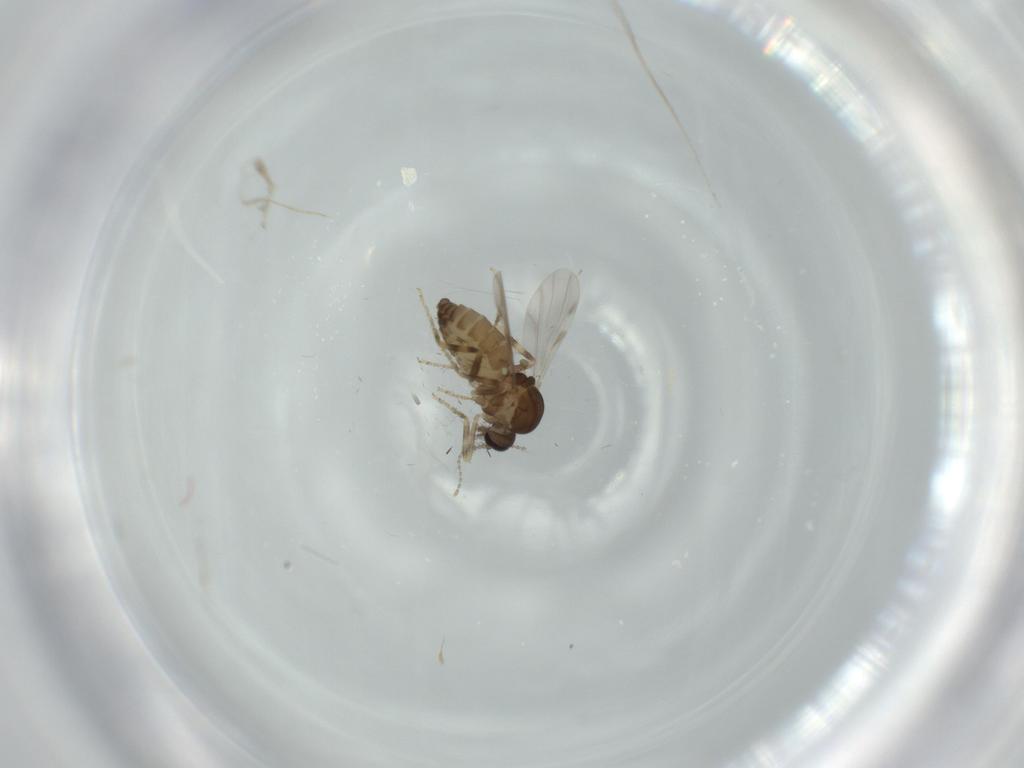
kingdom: Animalia
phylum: Arthropoda
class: Insecta
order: Diptera
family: Ceratopogonidae
